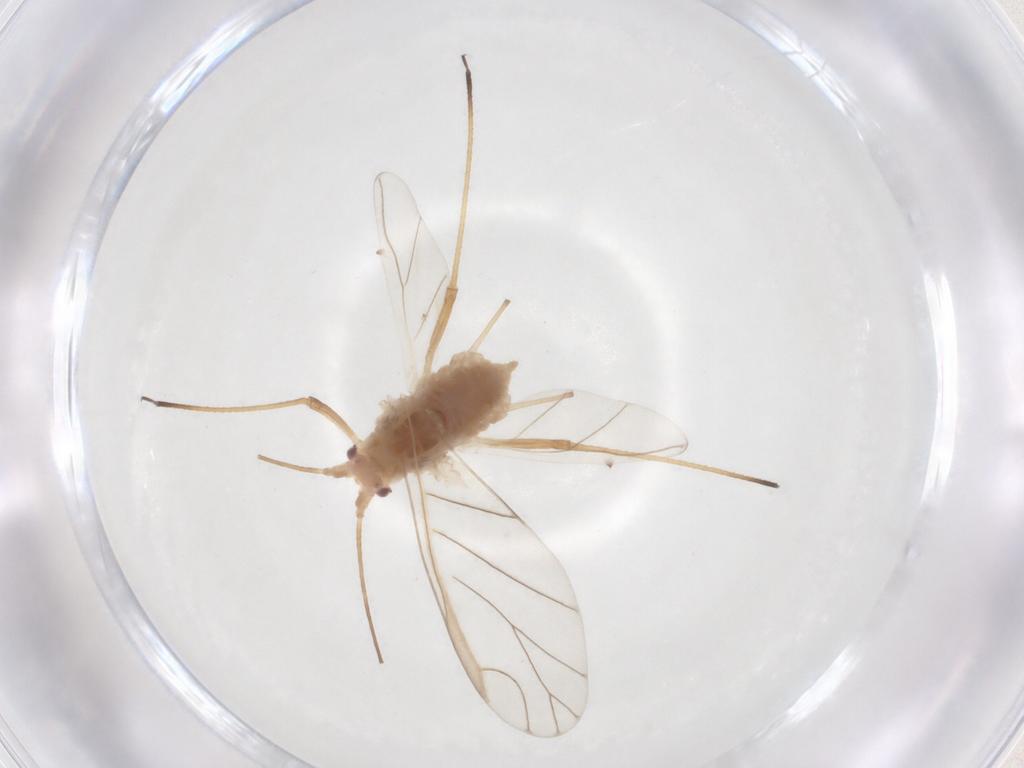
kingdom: Animalia
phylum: Arthropoda
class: Insecta
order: Hemiptera
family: Aphididae
